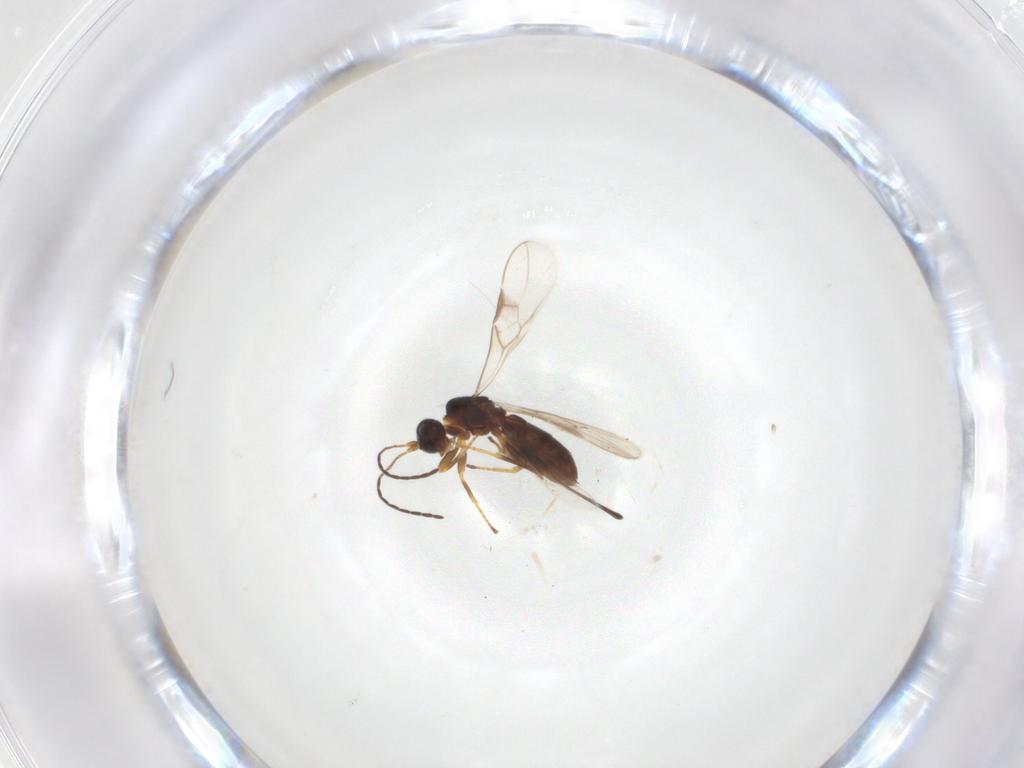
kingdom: Animalia
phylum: Arthropoda
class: Insecta
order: Hymenoptera
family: Braconidae
